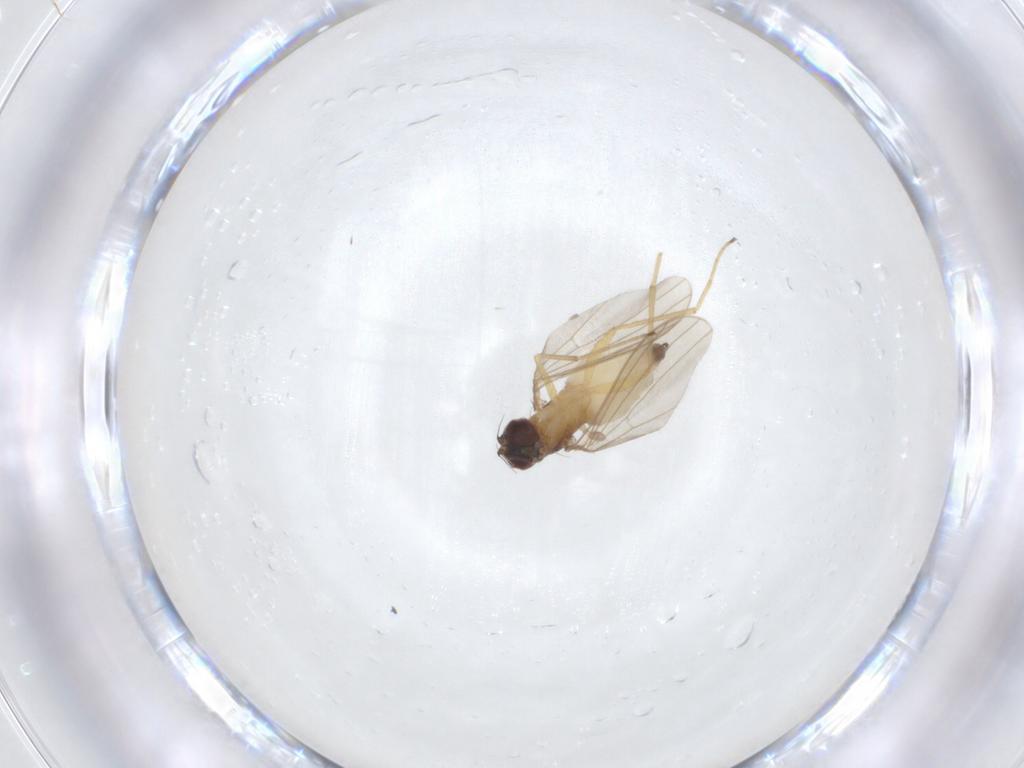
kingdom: Animalia
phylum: Arthropoda
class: Insecta
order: Diptera
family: Dolichopodidae
